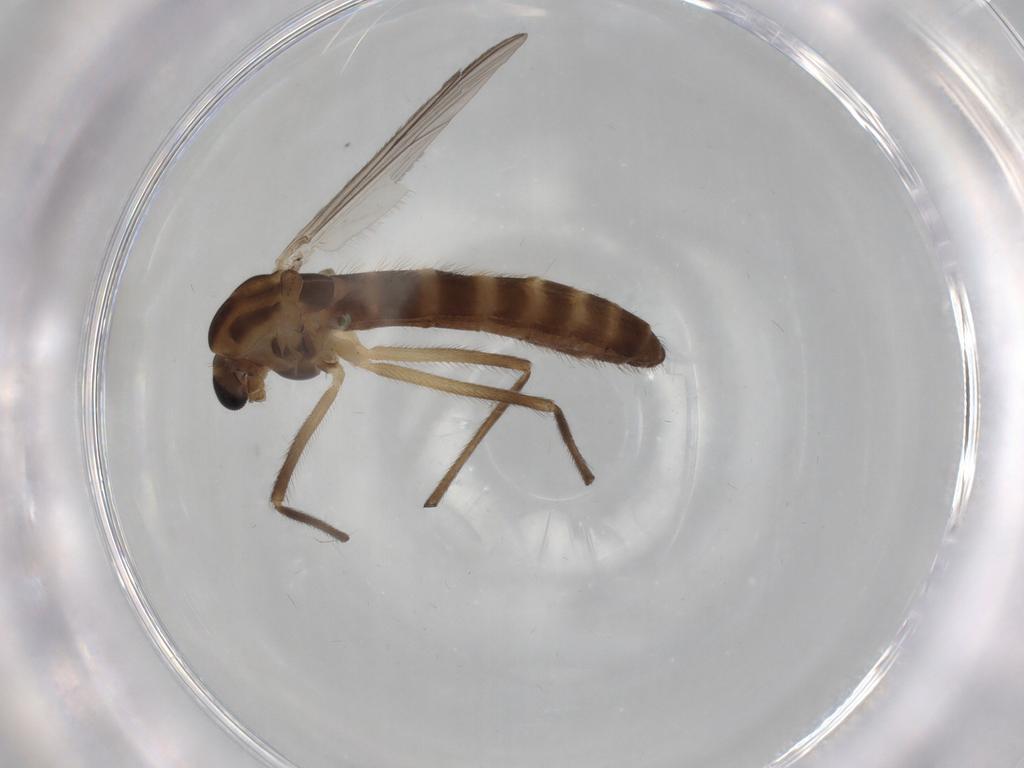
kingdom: Animalia
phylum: Arthropoda
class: Insecta
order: Diptera
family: Chironomidae
